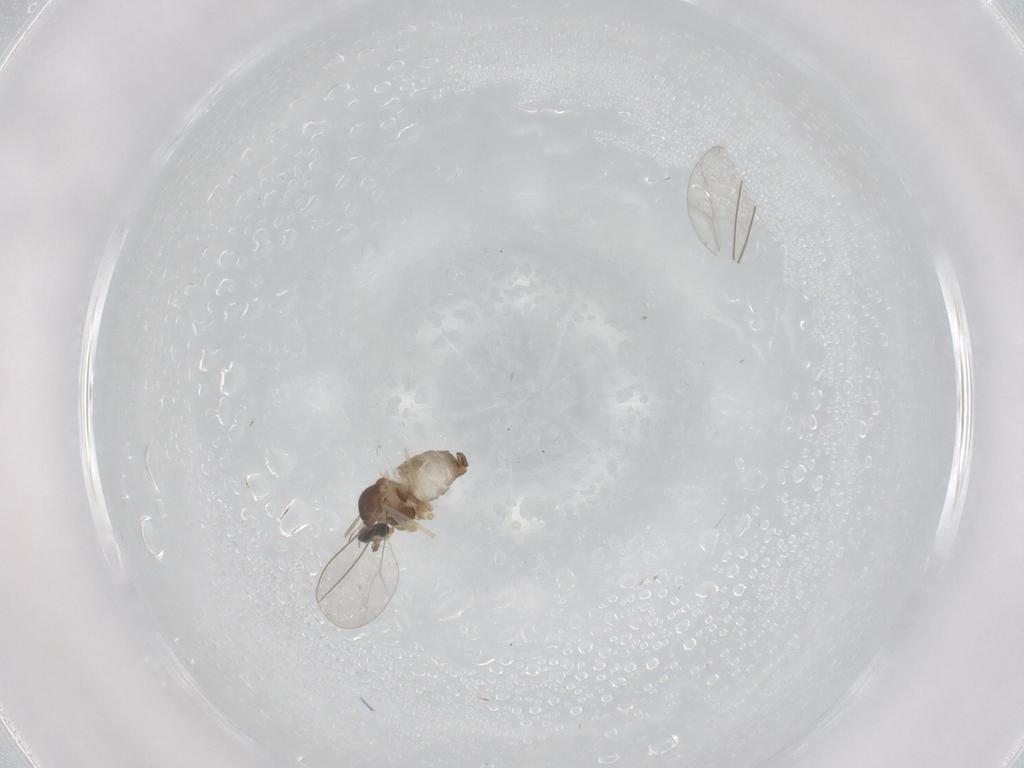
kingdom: Animalia
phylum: Arthropoda
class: Insecta
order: Diptera
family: Cecidomyiidae
